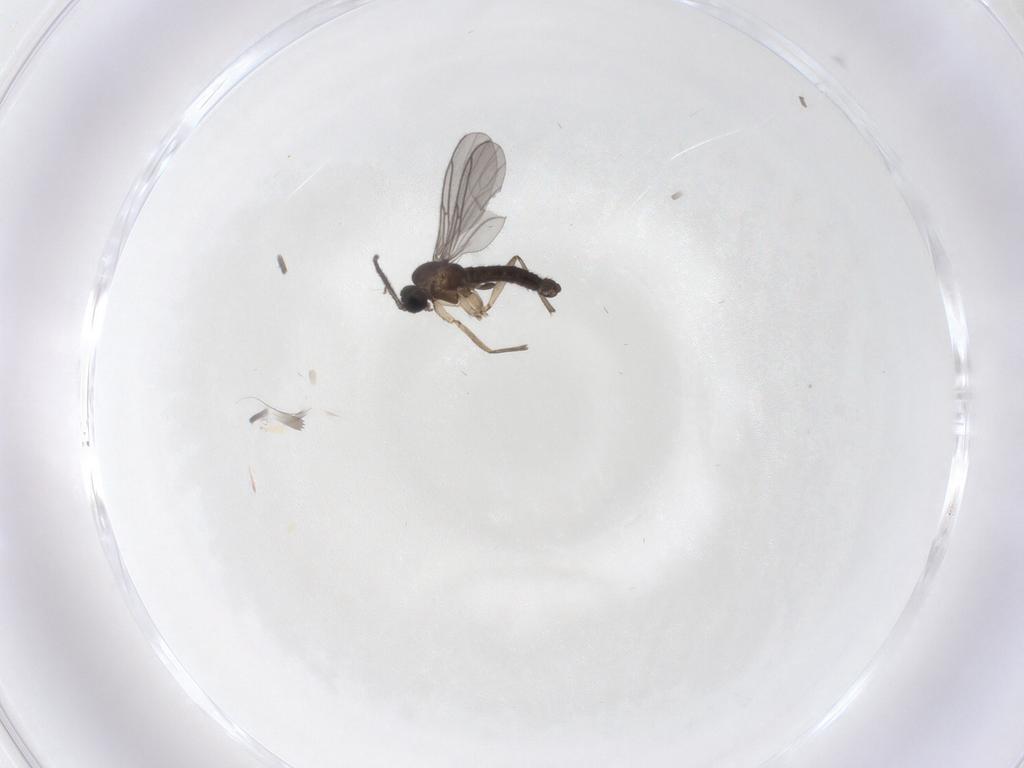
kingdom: Animalia
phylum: Arthropoda
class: Insecta
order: Diptera
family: Sciaridae
